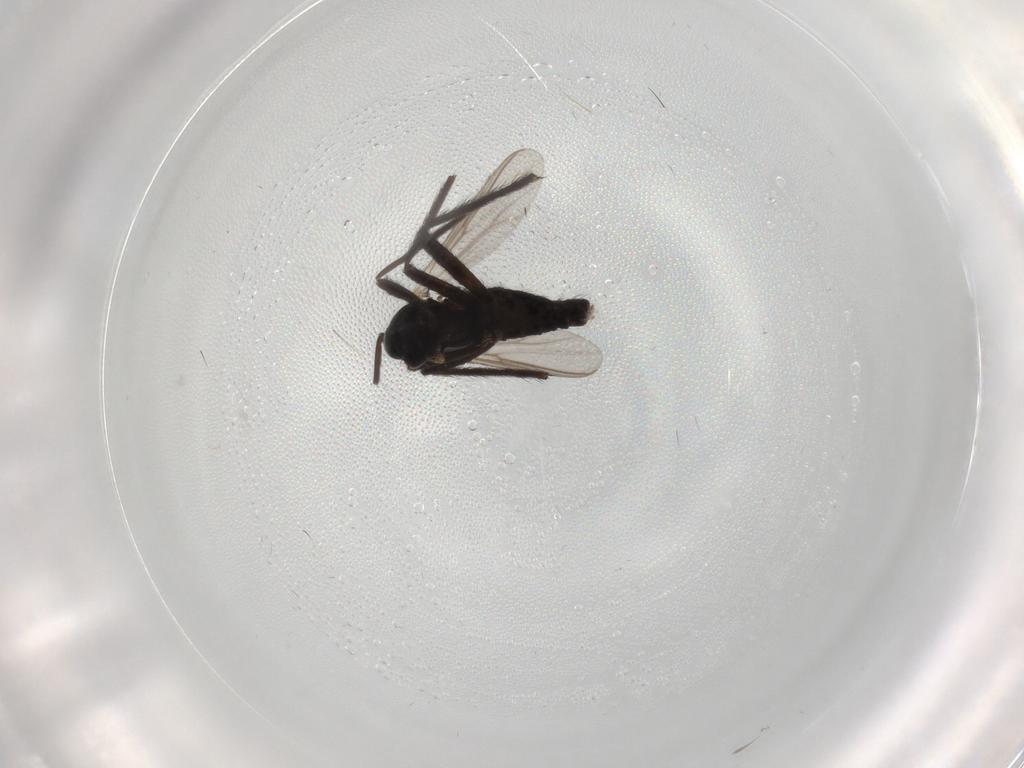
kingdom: Animalia
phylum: Arthropoda
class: Insecta
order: Diptera
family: Chironomidae
